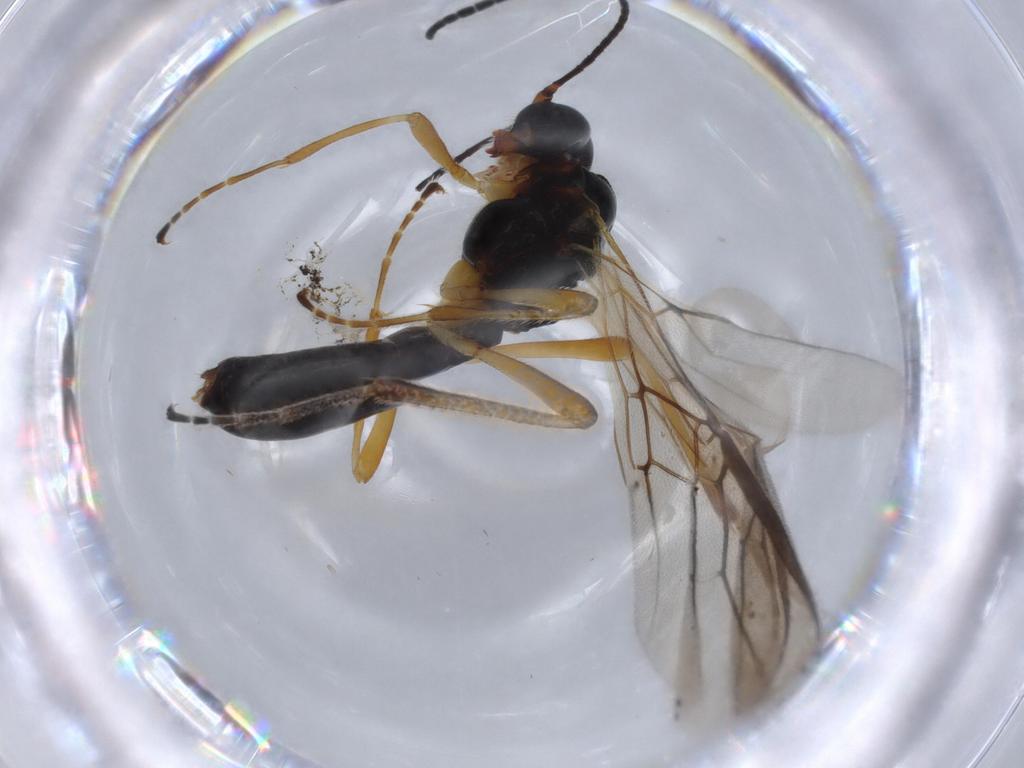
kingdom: Animalia
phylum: Arthropoda
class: Insecta
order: Hymenoptera
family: Braconidae
